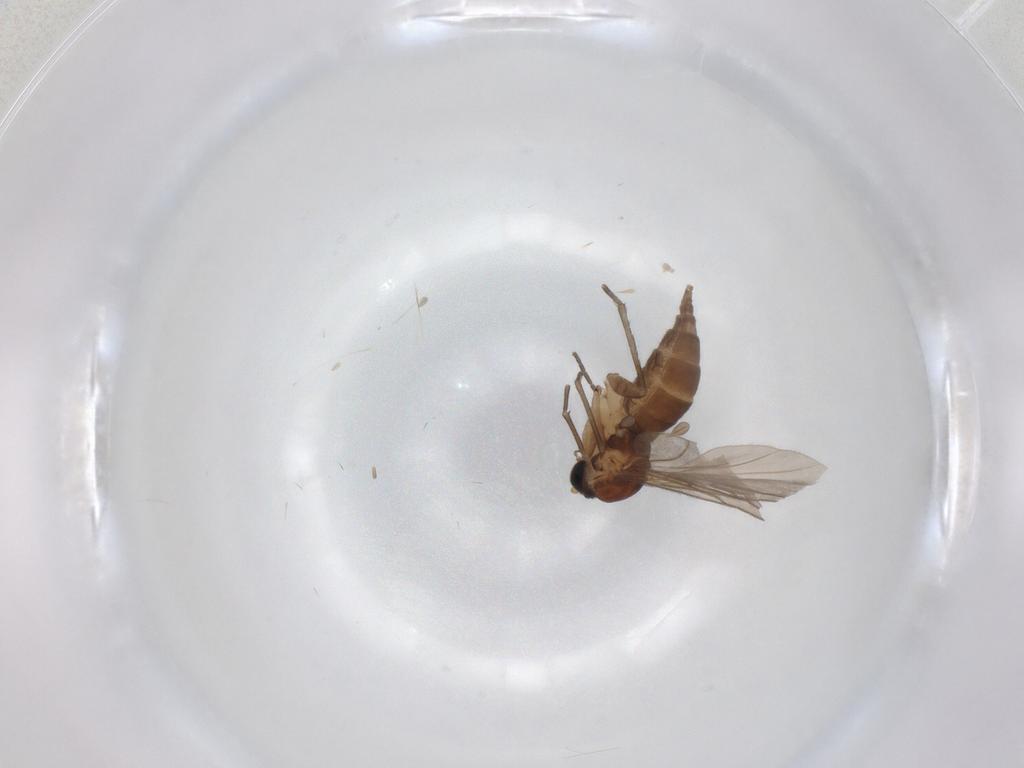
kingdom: Animalia
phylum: Arthropoda
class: Insecta
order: Diptera
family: Sciaridae
